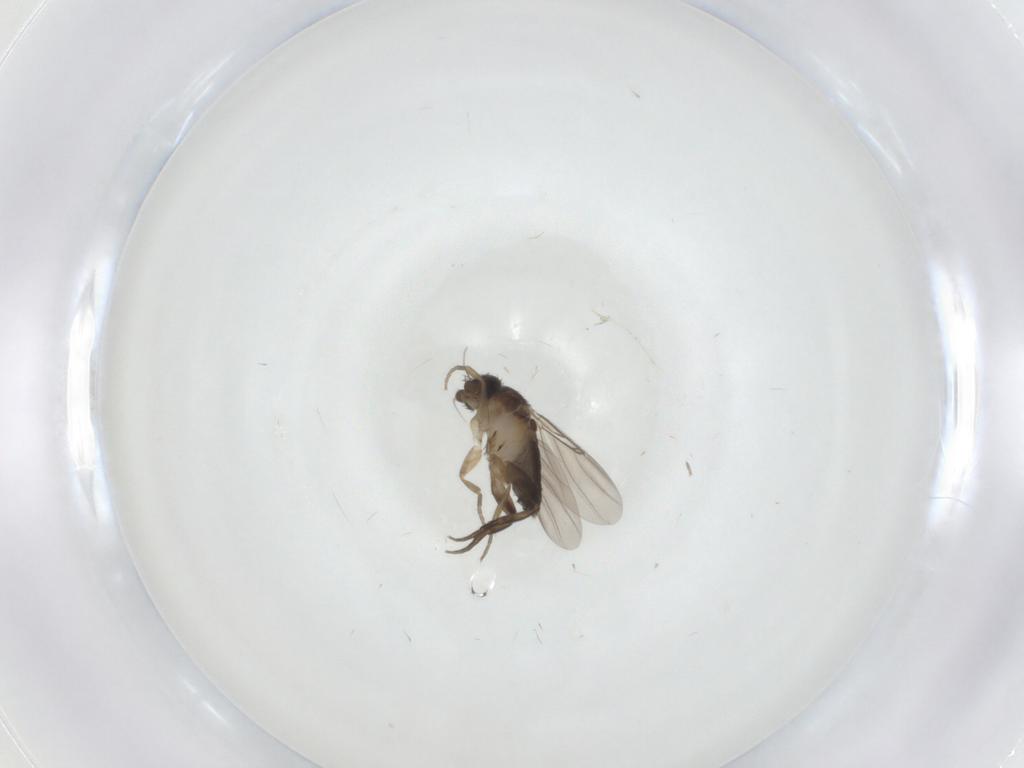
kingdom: Animalia
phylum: Arthropoda
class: Insecta
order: Diptera
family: Phoridae
